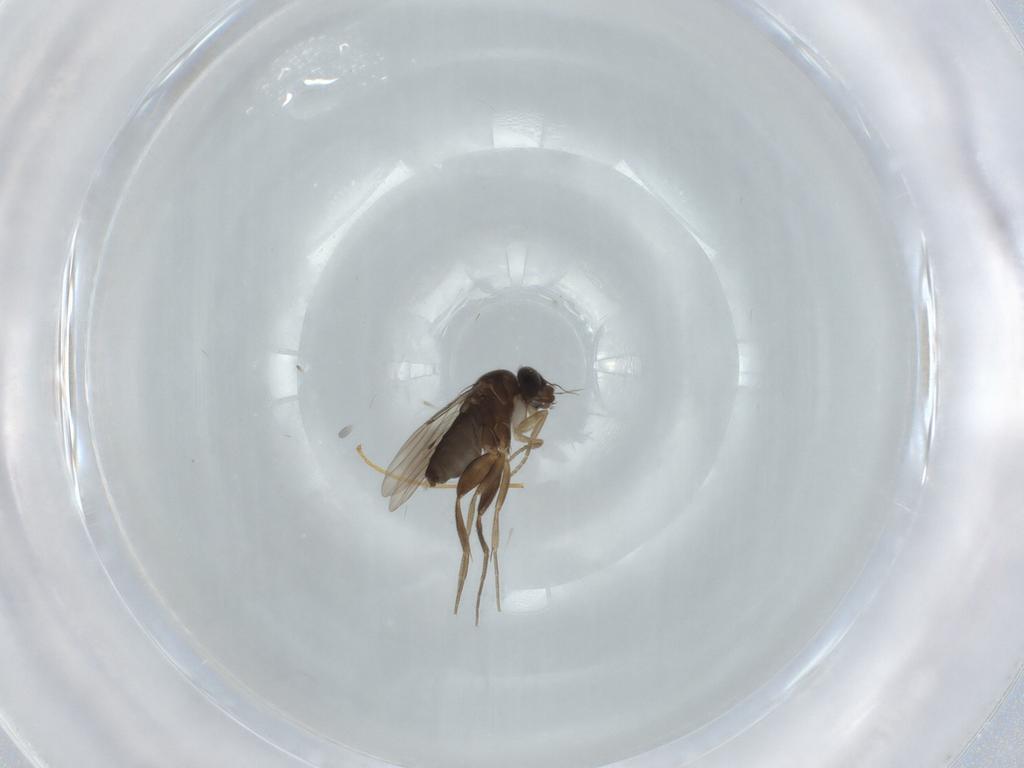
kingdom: Animalia
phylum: Arthropoda
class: Insecta
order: Diptera
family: Phoridae
